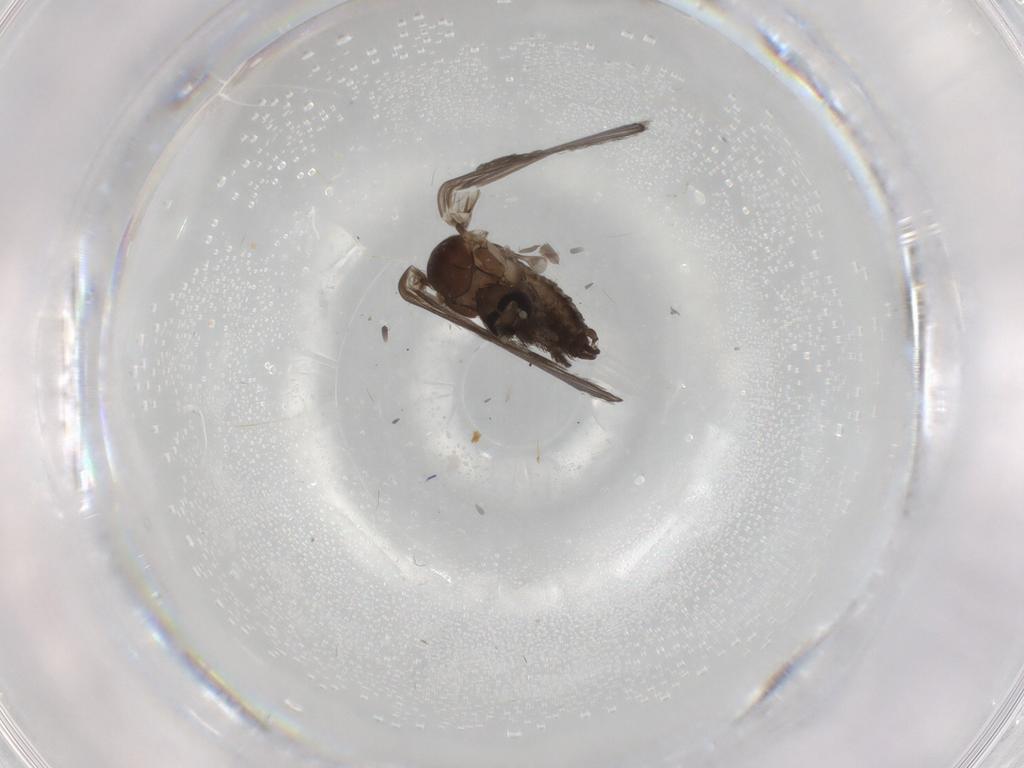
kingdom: Animalia
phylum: Arthropoda
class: Insecta
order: Diptera
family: Psychodidae
